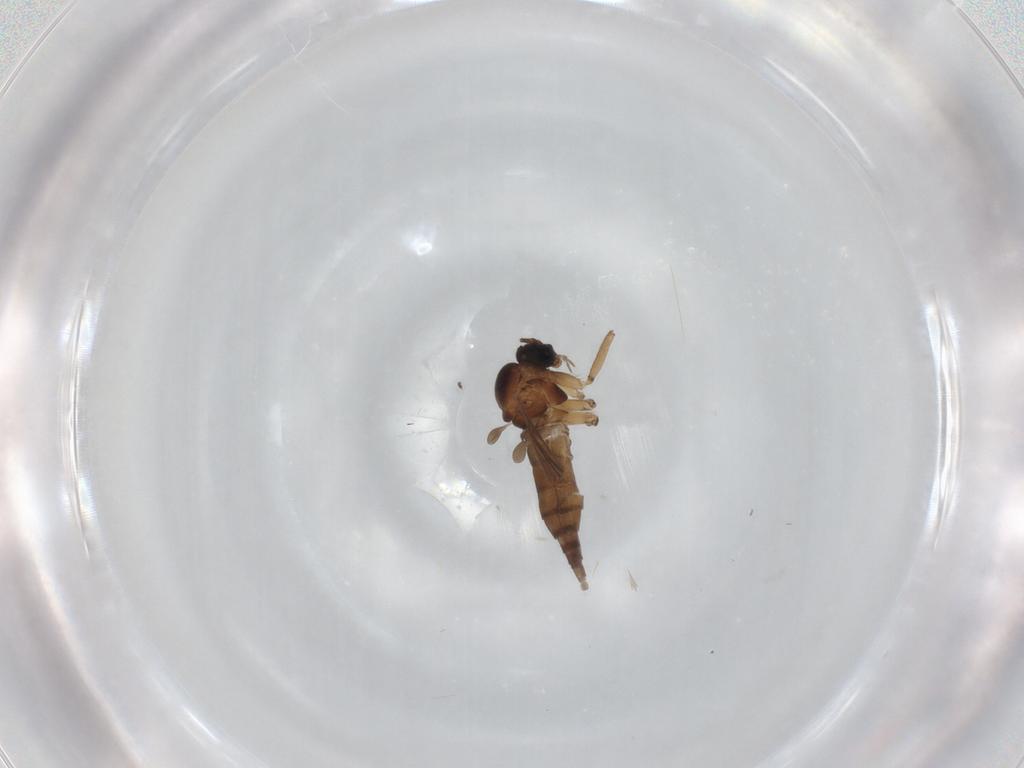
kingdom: Animalia
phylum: Arthropoda
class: Insecta
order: Diptera
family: Sciaridae
